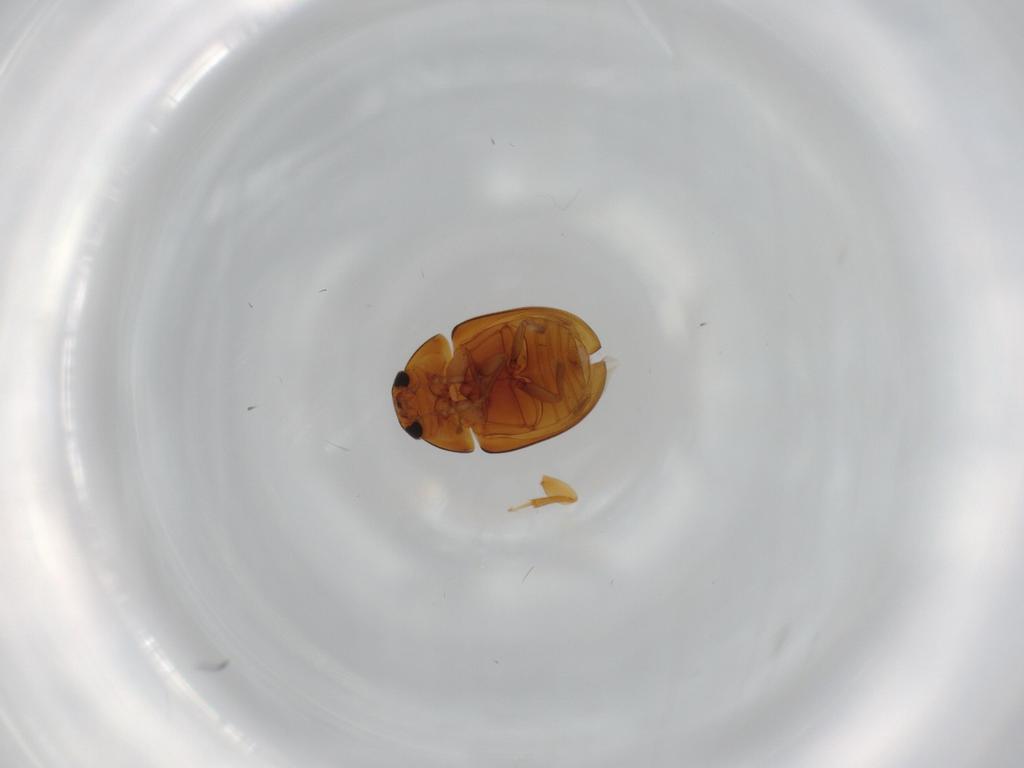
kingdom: Animalia
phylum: Arthropoda
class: Insecta
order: Coleoptera
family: Phalacridae
